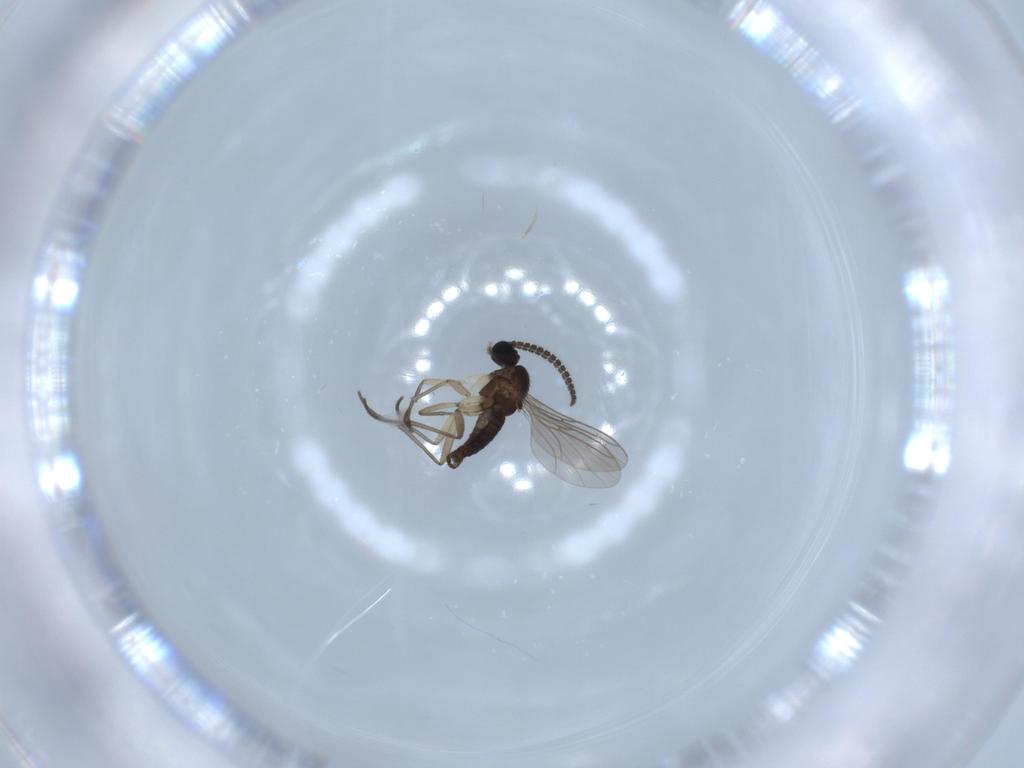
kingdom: Animalia
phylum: Arthropoda
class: Insecta
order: Diptera
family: Sciaridae
